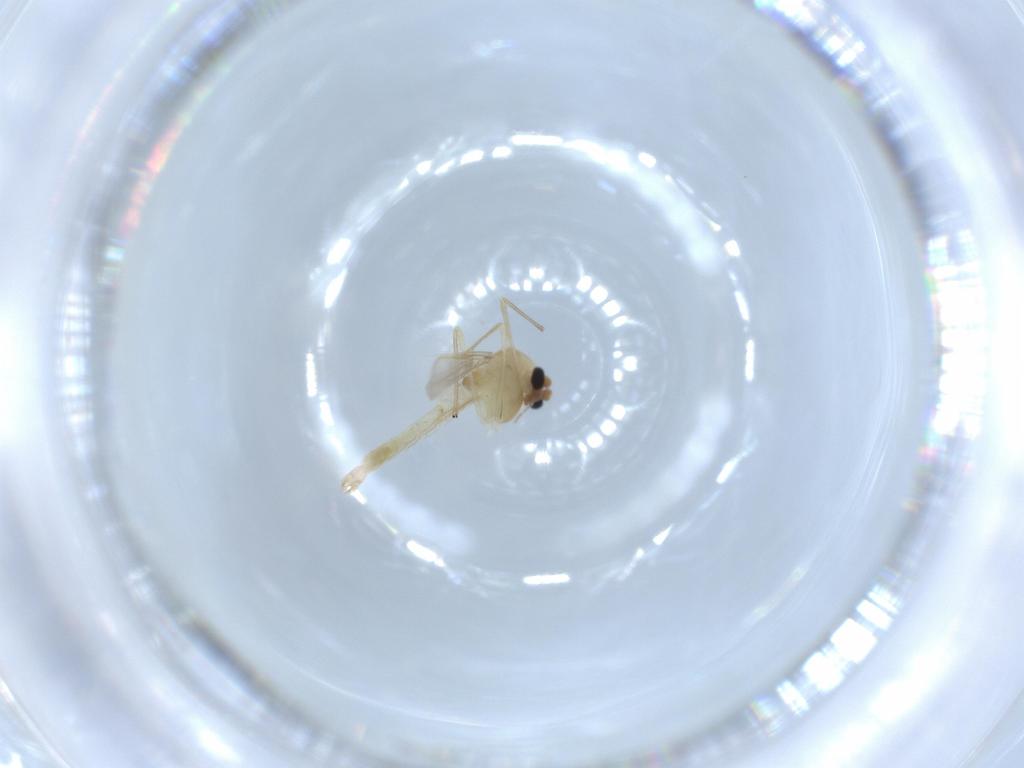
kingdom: Animalia
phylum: Arthropoda
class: Insecta
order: Diptera
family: Chironomidae
